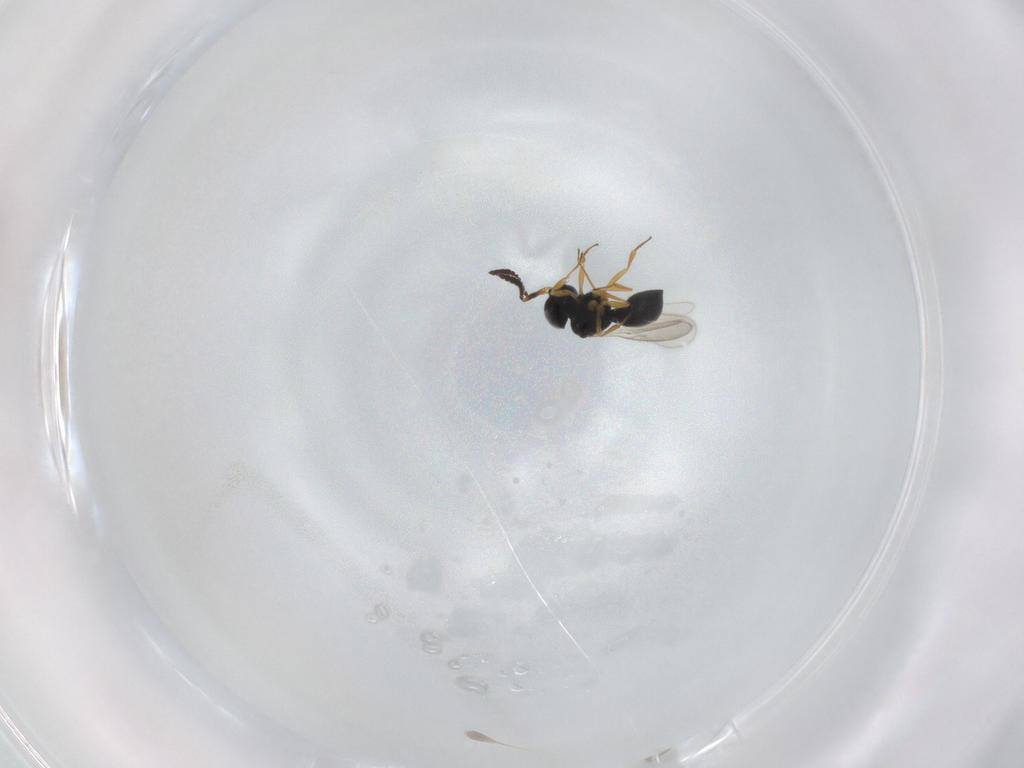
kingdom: Animalia
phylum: Arthropoda
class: Insecta
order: Hymenoptera
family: Scelionidae
